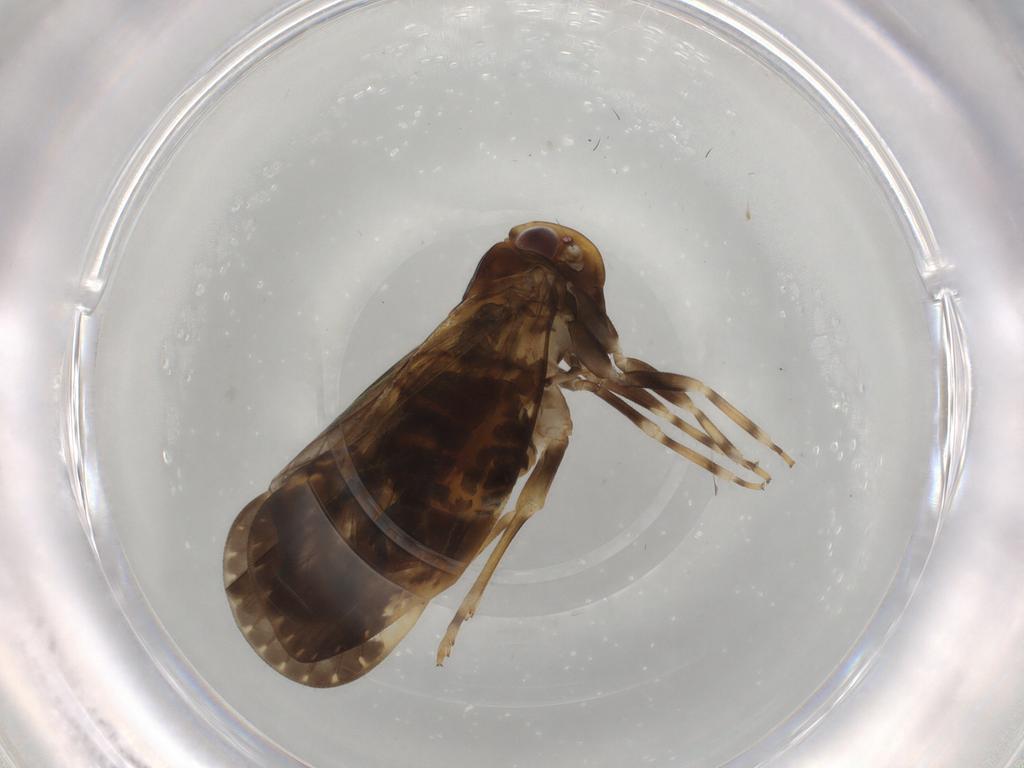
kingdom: Animalia
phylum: Arthropoda
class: Insecta
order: Hemiptera
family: Cixiidae
